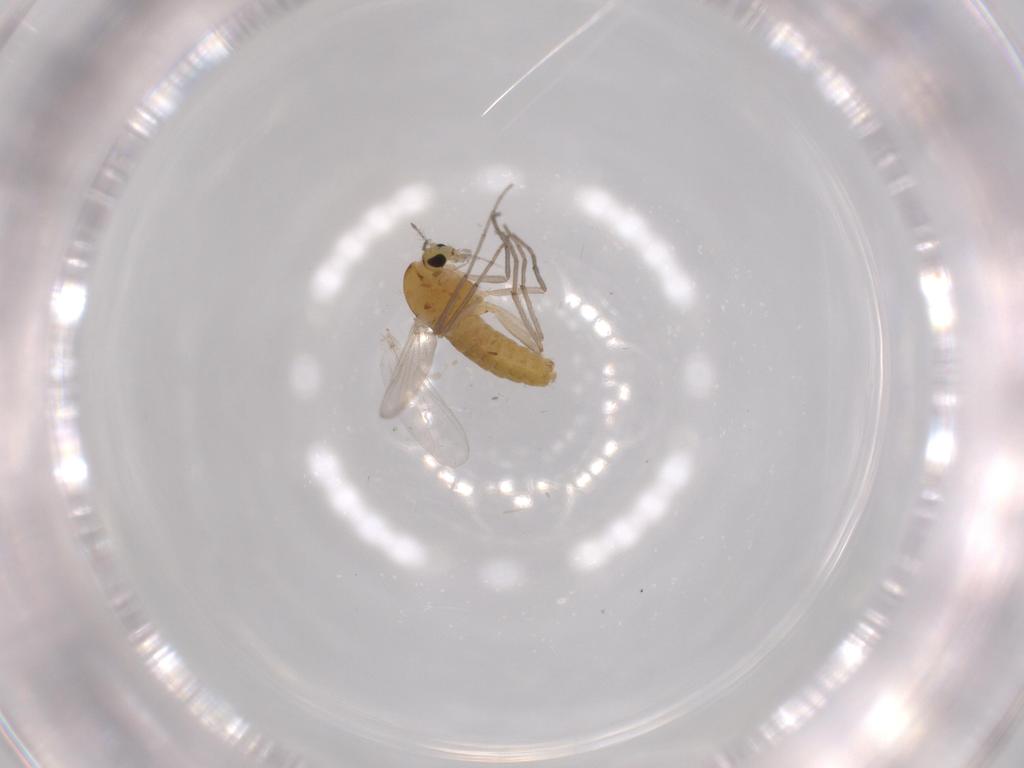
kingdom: Animalia
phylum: Arthropoda
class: Insecta
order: Diptera
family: Chironomidae
